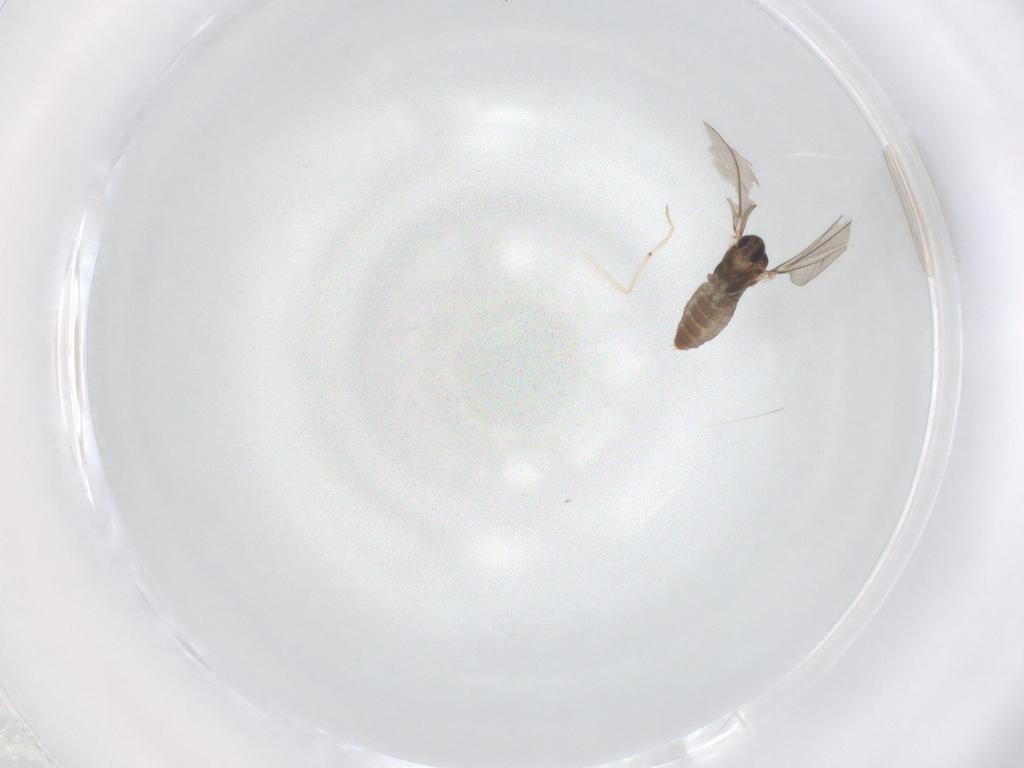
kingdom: Animalia
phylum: Arthropoda
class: Insecta
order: Diptera
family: Cecidomyiidae
